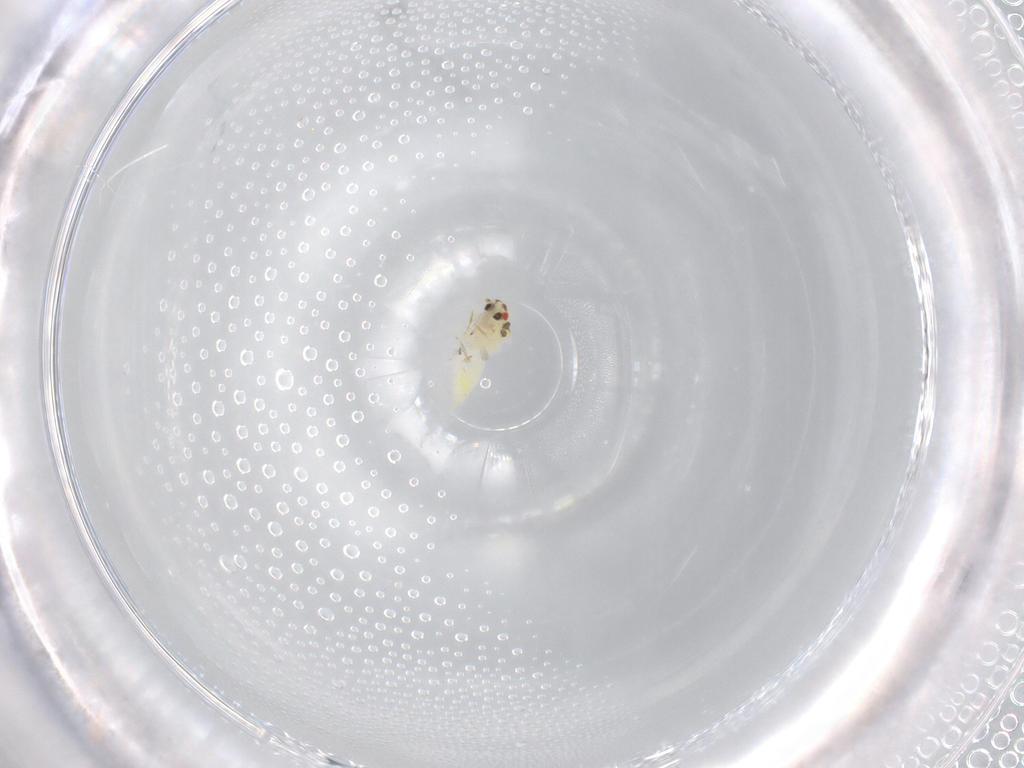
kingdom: Animalia
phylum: Arthropoda
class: Insecta
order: Hemiptera
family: Aleyrodidae
